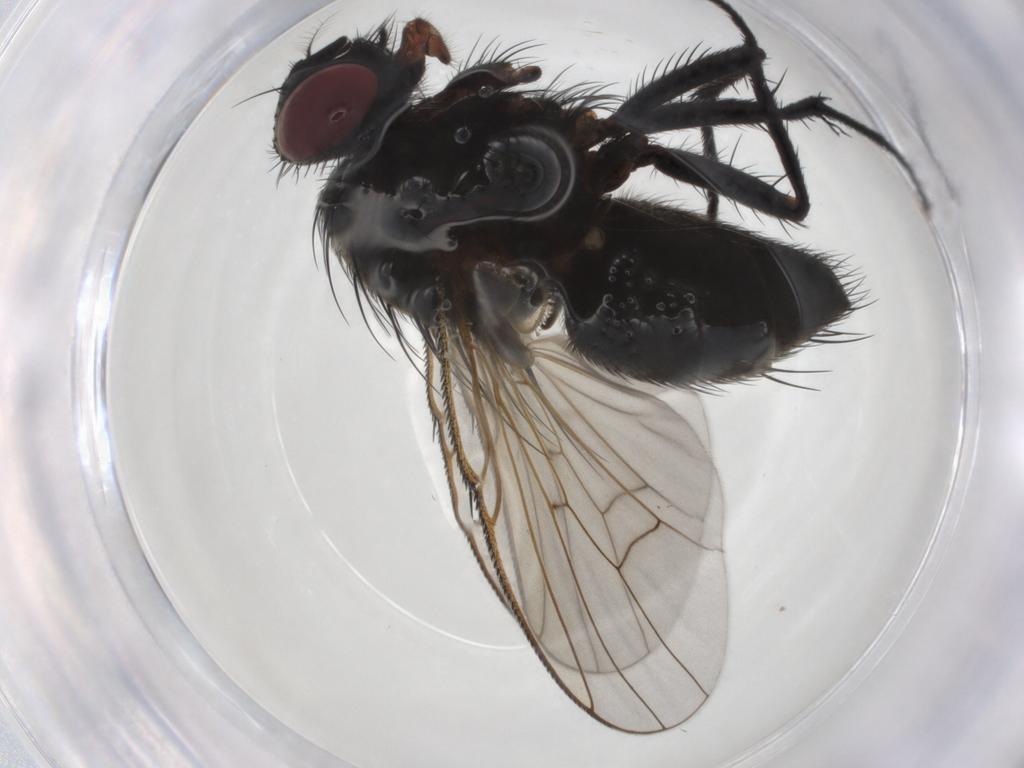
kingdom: Animalia
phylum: Arthropoda
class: Insecta
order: Diptera
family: Muscidae
